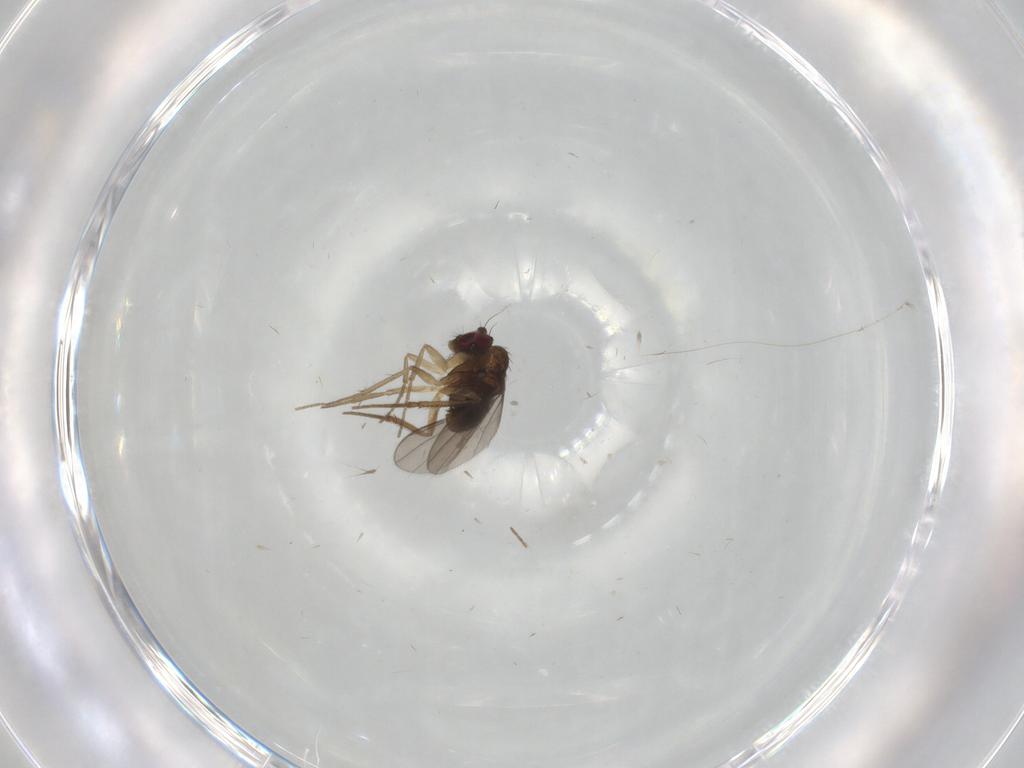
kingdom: Animalia
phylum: Arthropoda
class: Insecta
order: Diptera
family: Dolichopodidae
